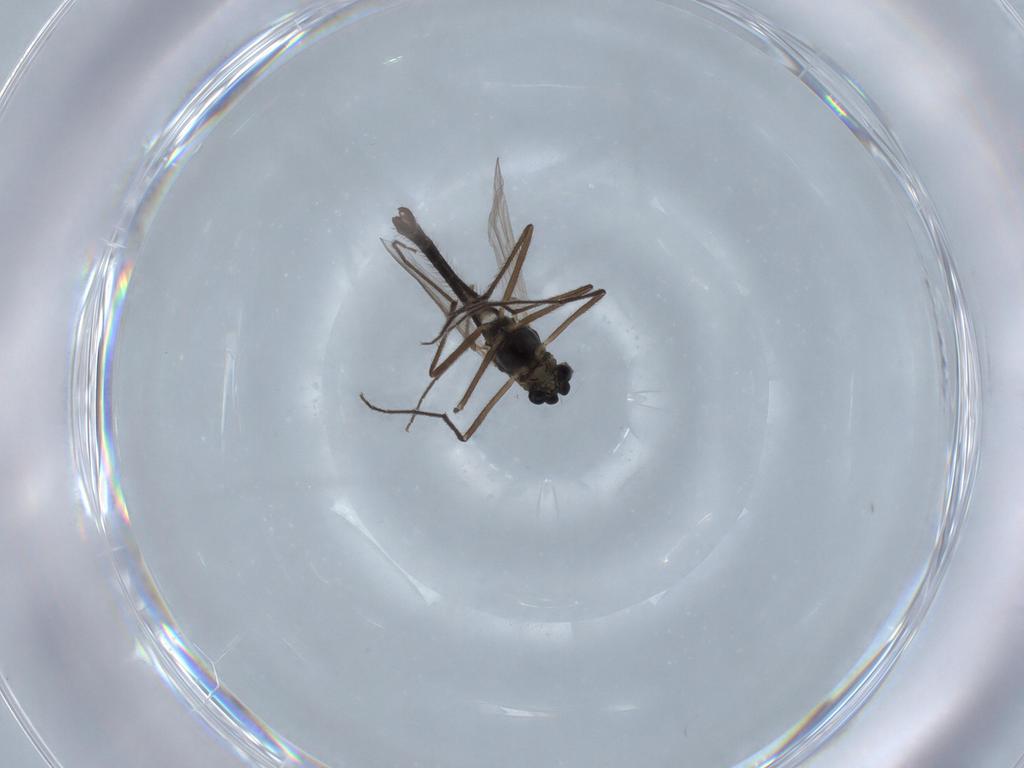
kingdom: Animalia
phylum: Arthropoda
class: Insecta
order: Diptera
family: Chironomidae
